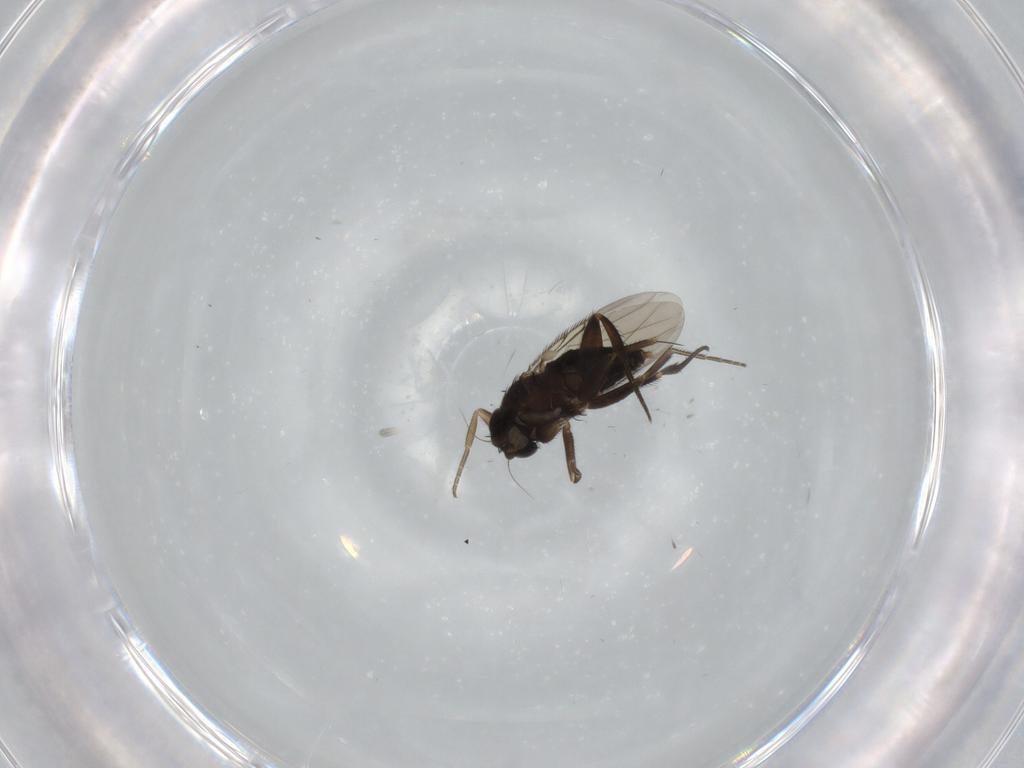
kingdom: Animalia
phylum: Arthropoda
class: Insecta
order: Diptera
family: Phoridae
